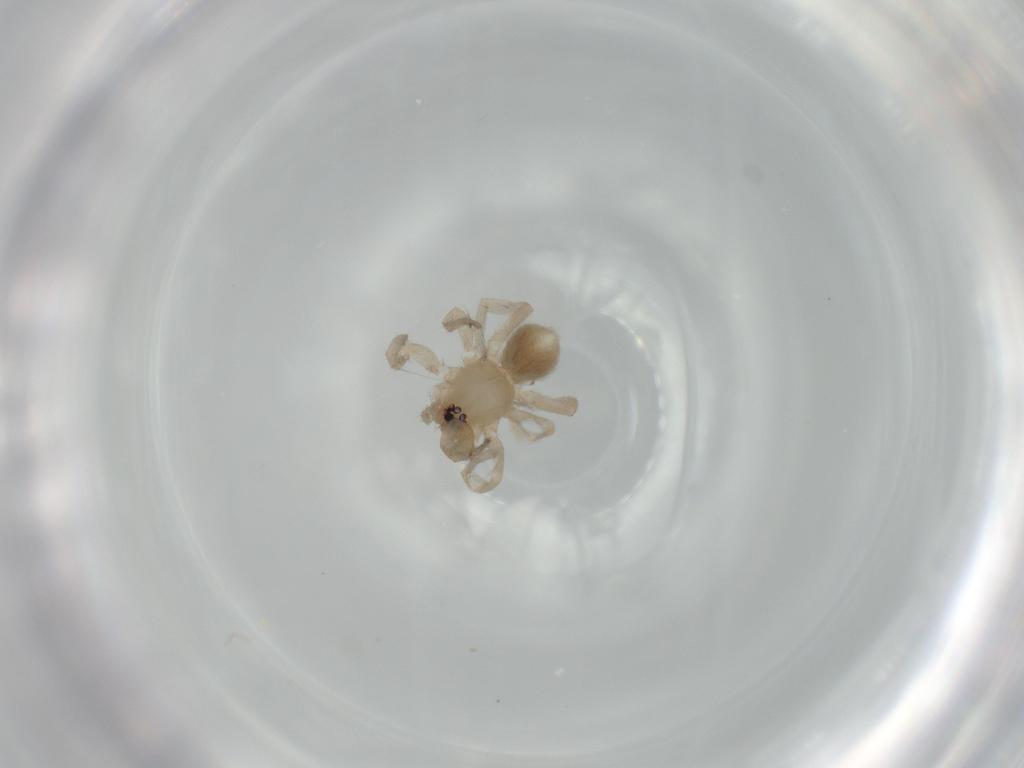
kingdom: Animalia
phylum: Arthropoda
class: Arachnida
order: Araneae
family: Gnaphosidae
